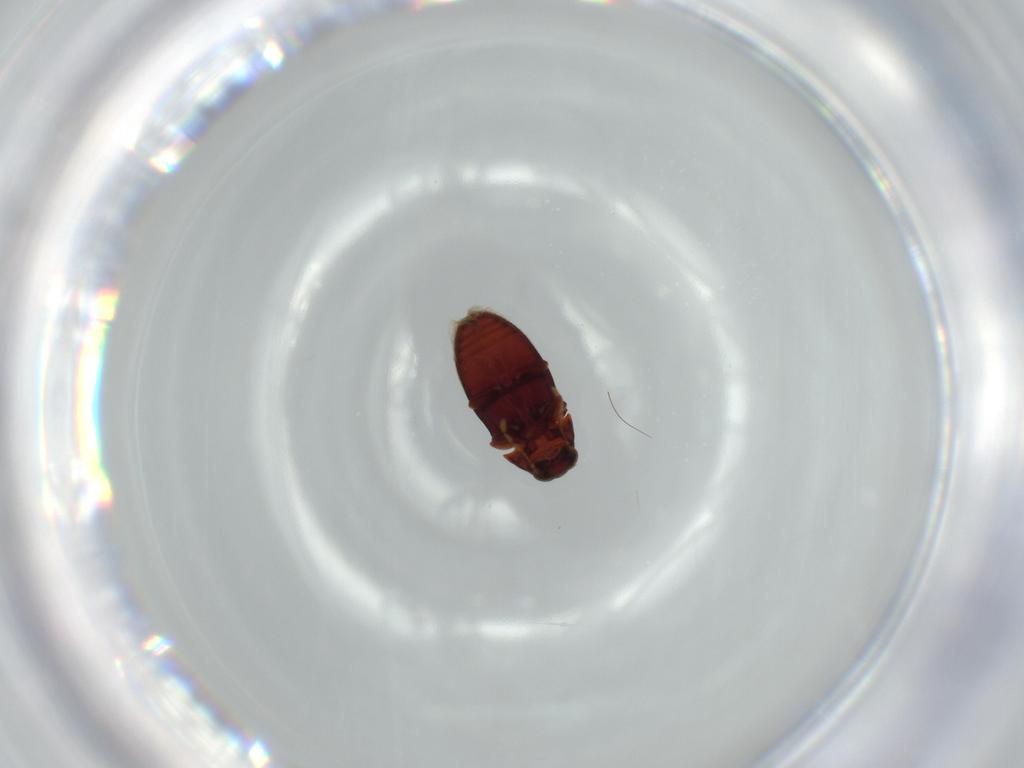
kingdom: Animalia
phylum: Arthropoda
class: Insecta
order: Coleoptera
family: Ptinidae
